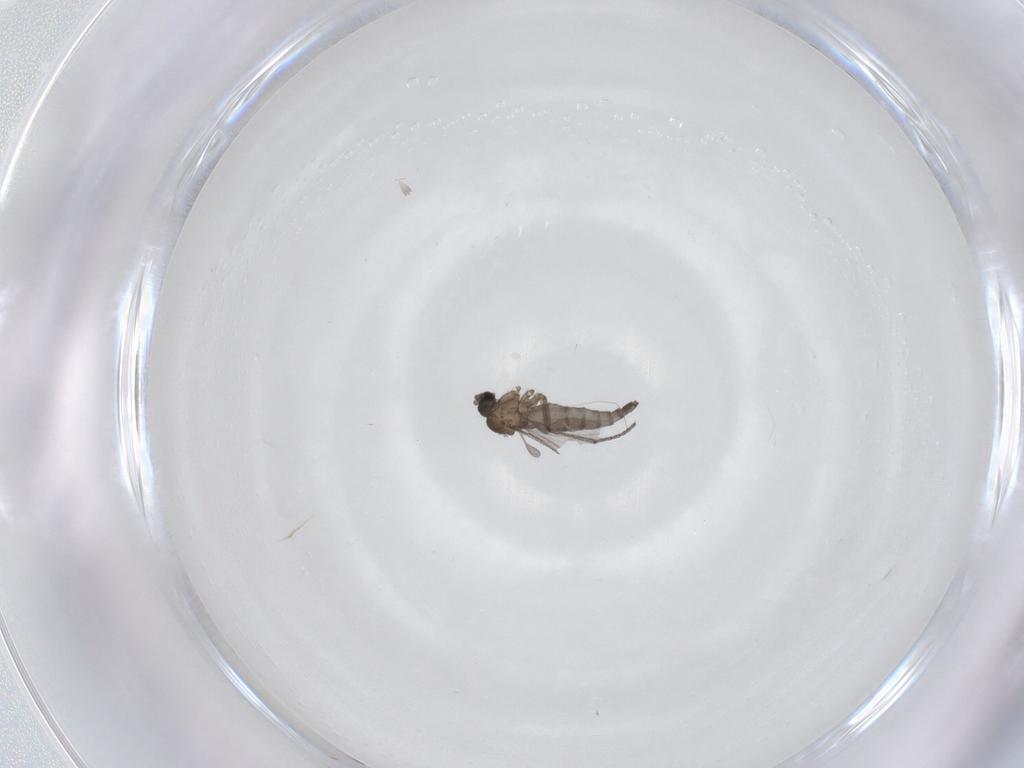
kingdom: Animalia
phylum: Arthropoda
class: Insecta
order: Diptera
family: Sciaridae
